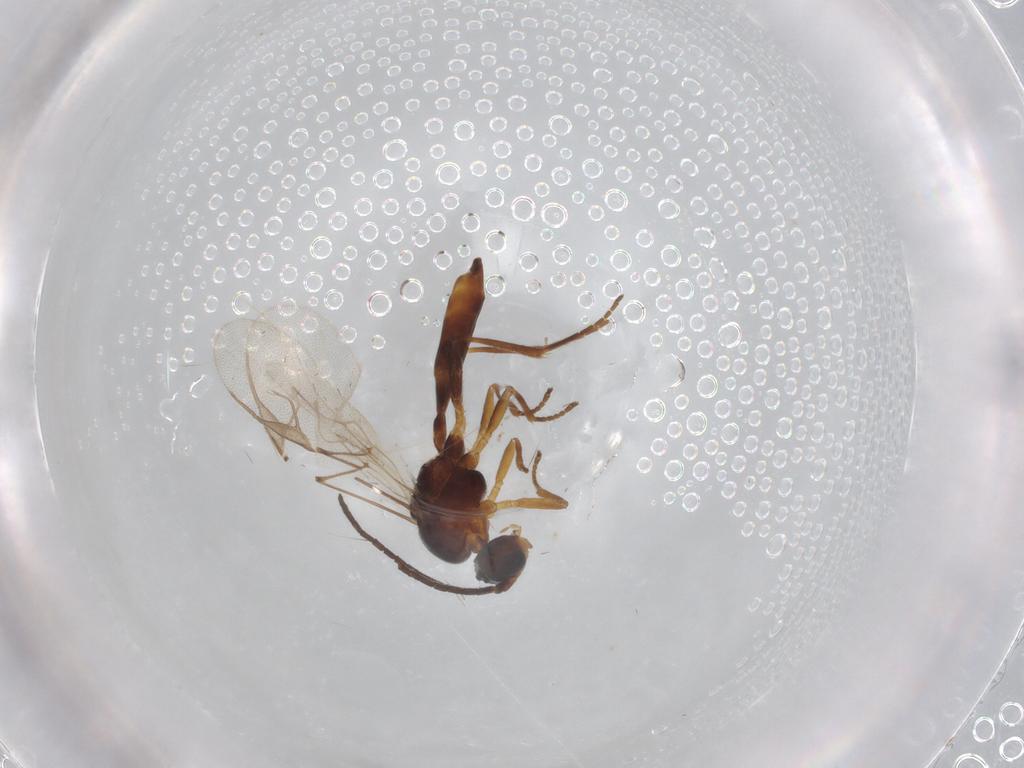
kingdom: Animalia
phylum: Arthropoda
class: Insecta
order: Hymenoptera
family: Braconidae
